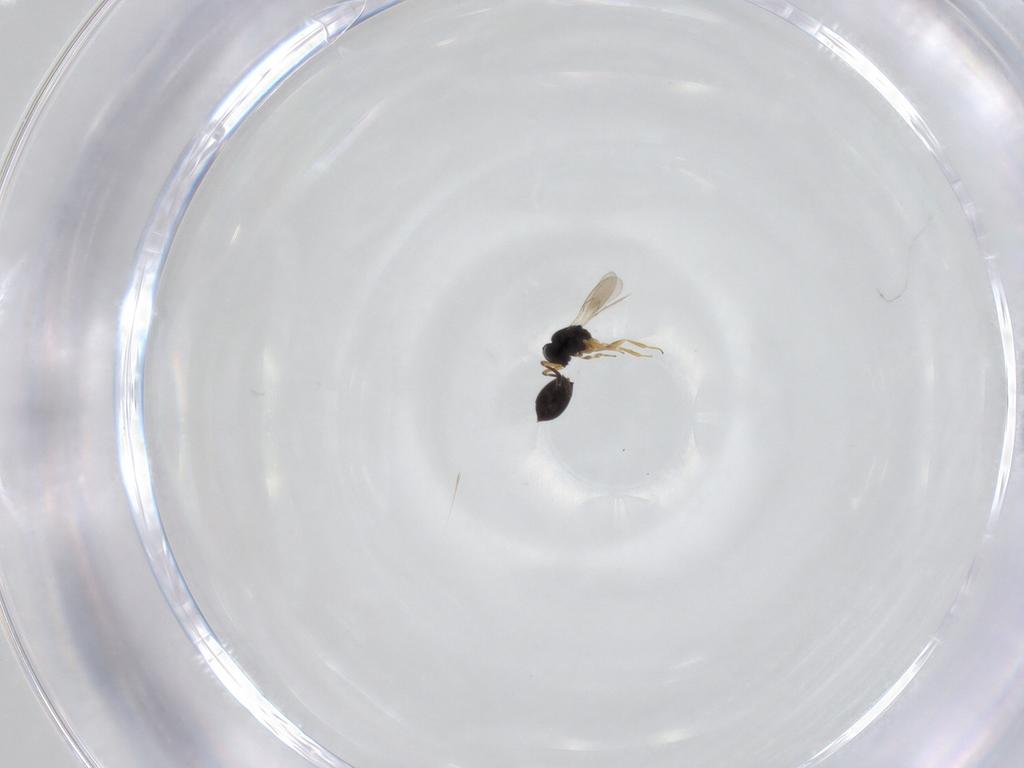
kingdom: Animalia
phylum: Arthropoda
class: Insecta
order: Hymenoptera
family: Scelionidae
